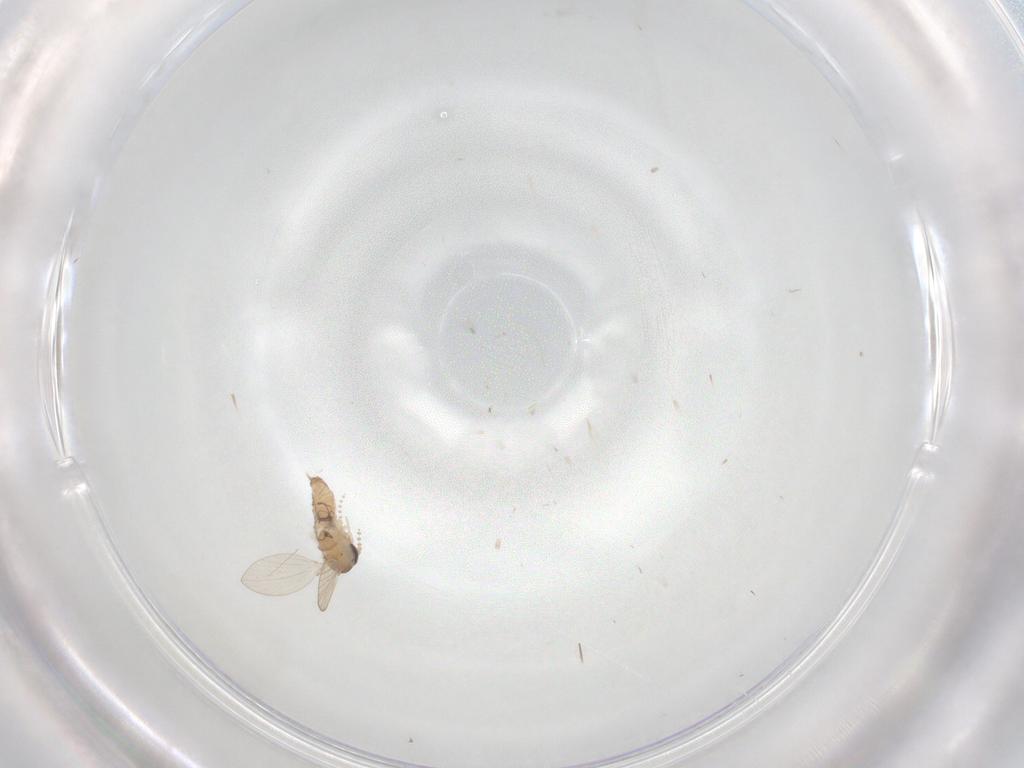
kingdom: Animalia
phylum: Arthropoda
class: Insecta
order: Diptera
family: Psychodidae
